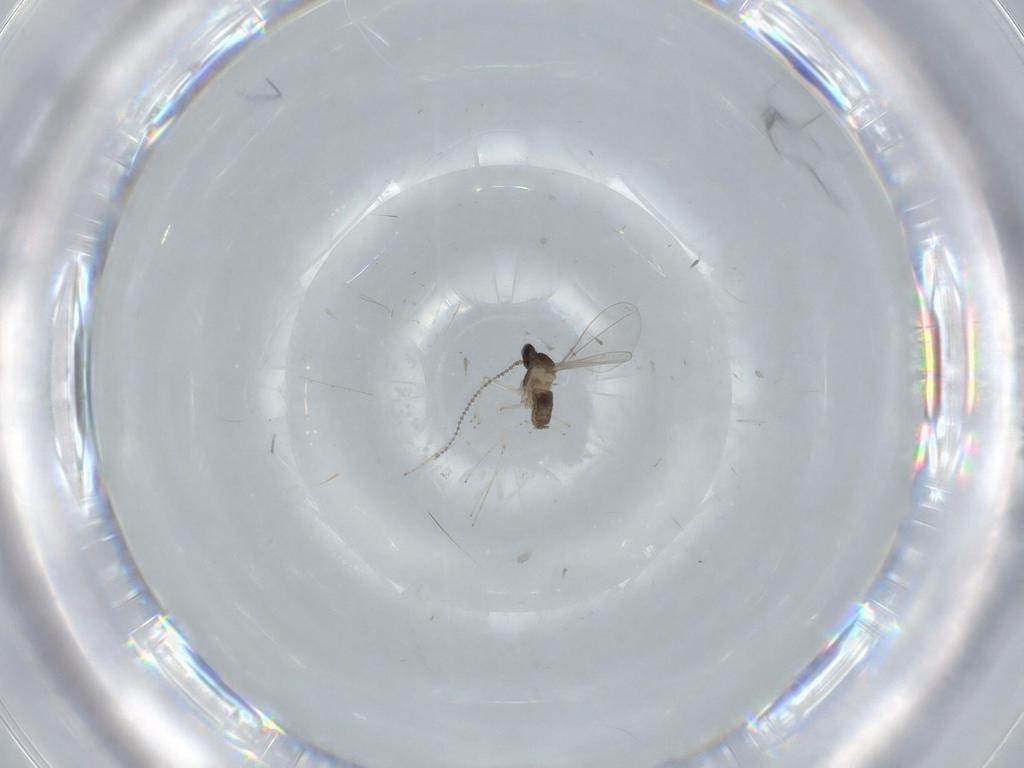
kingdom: Animalia
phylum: Arthropoda
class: Insecta
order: Diptera
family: Cecidomyiidae
